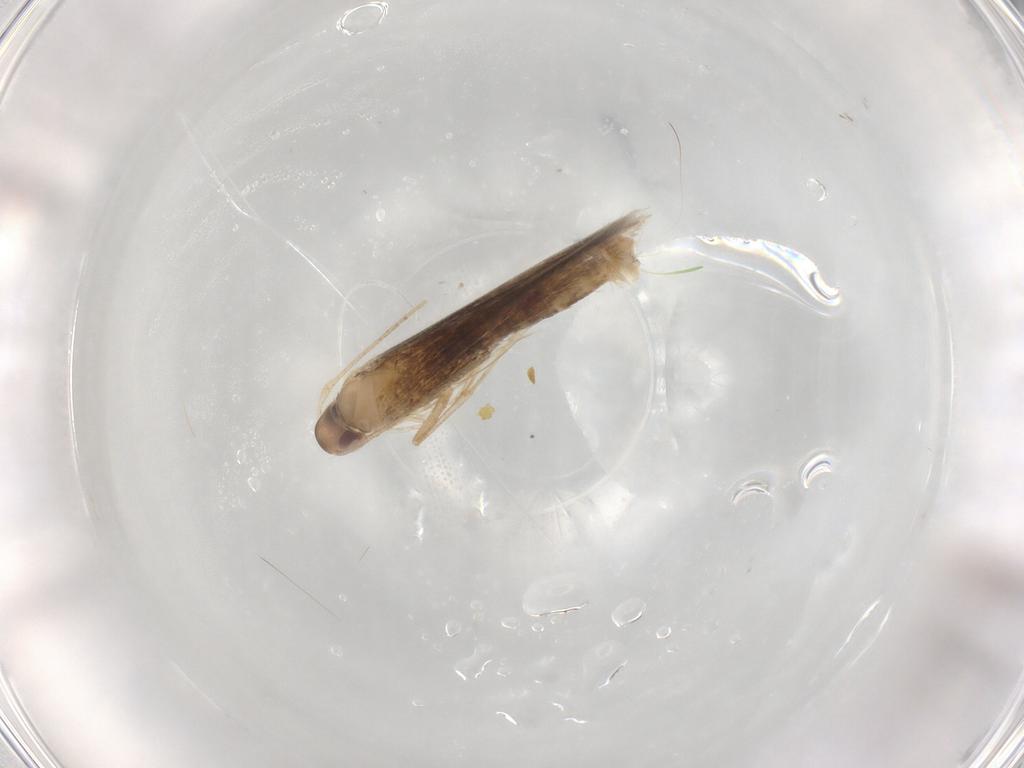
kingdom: Animalia
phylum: Arthropoda
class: Insecta
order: Lepidoptera
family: Cosmopterigidae
